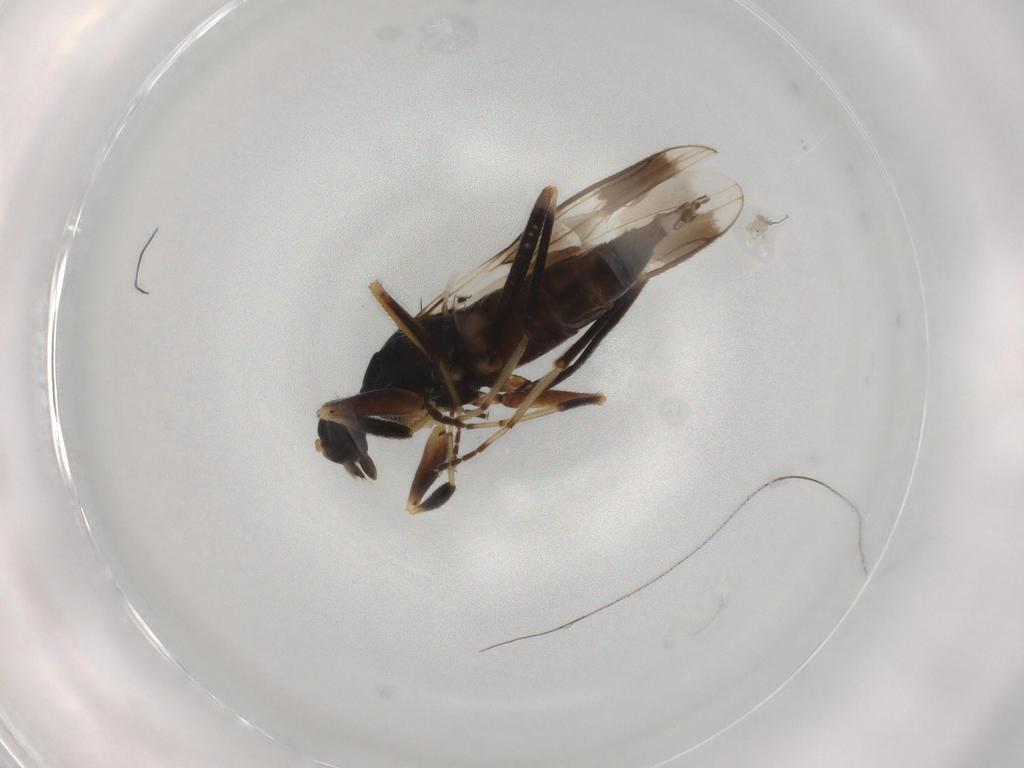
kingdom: Animalia
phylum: Arthropoda
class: Insecta
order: Diptera
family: Hybotidae
